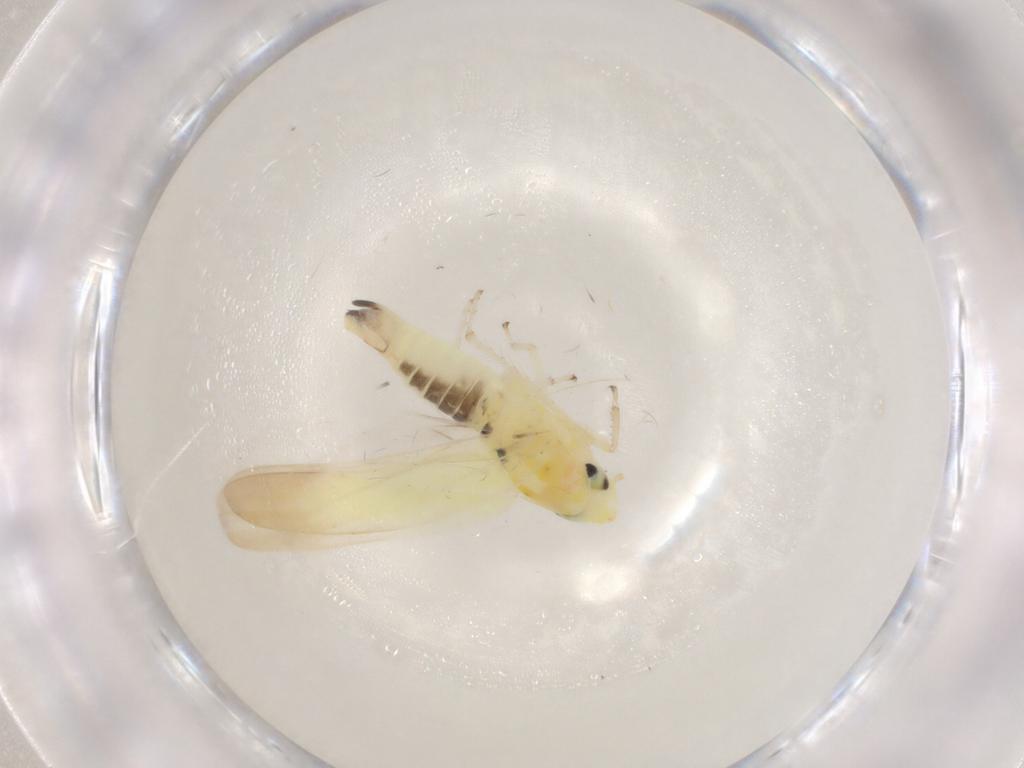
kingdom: Animalia
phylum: Arthropoda
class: Insecta
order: Hemiptera
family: Cicadellidae
